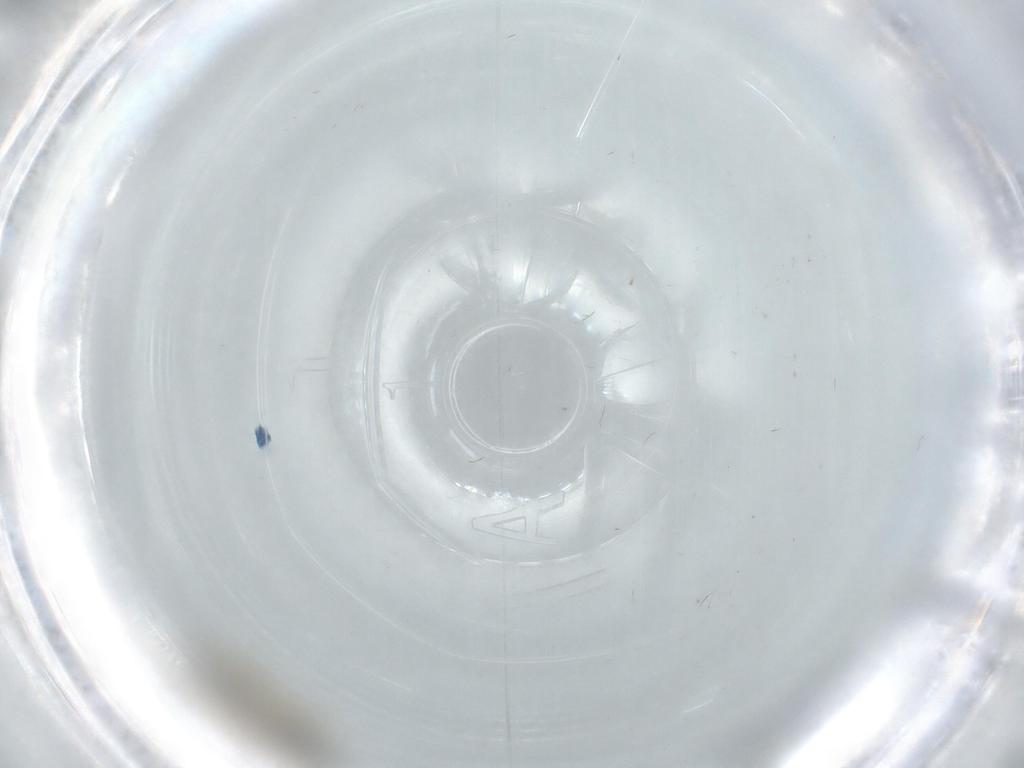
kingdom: Animalia
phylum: Arthropoda
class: Insecta
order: Diptera
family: Cecidomyiidae
